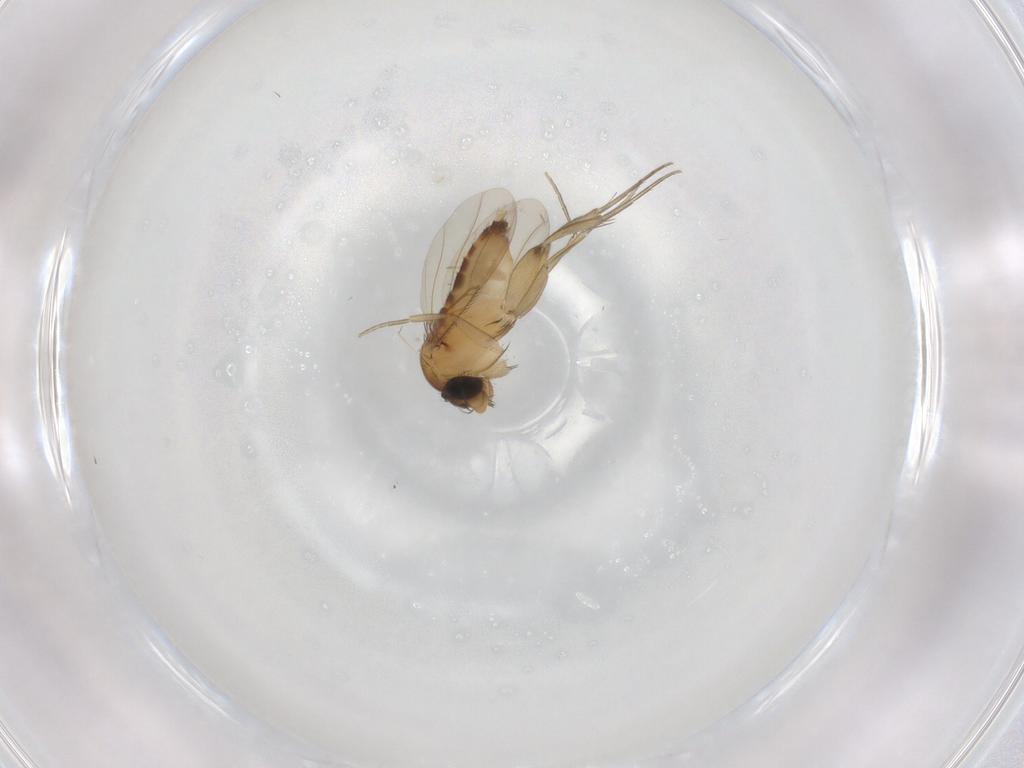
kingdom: Animalia
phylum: Arthropoda
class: Insecta
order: Diptera
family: Phoridae
